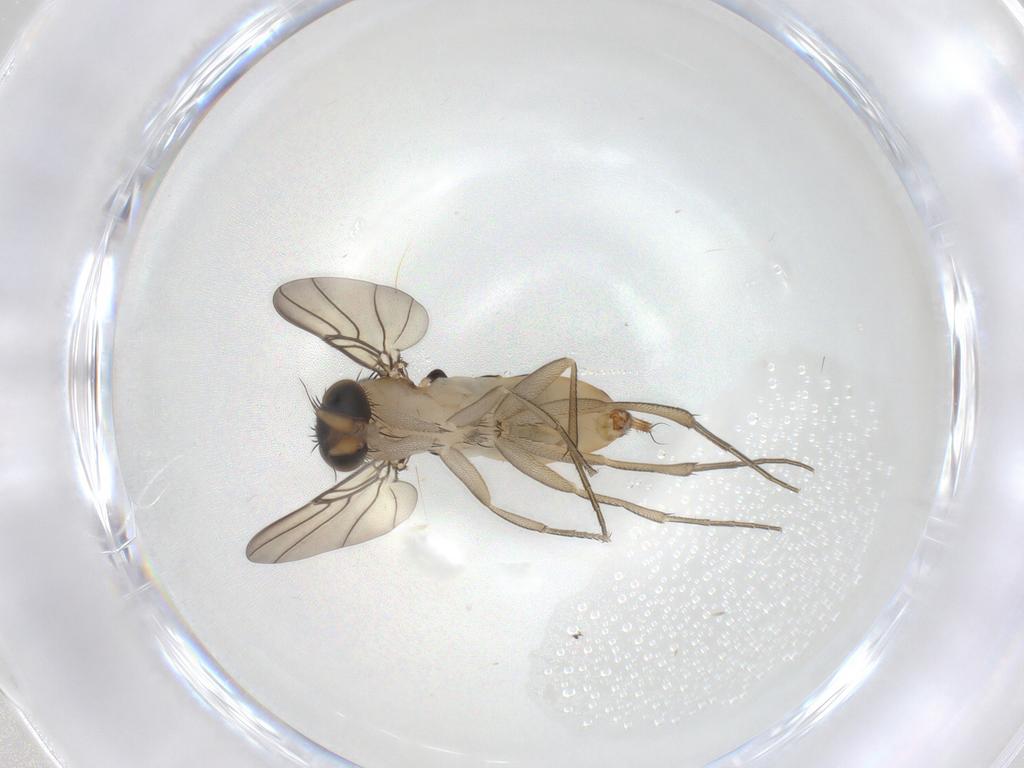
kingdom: Animalia
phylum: Arthropoda
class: Insecta
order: Diptera
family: Phoridae
